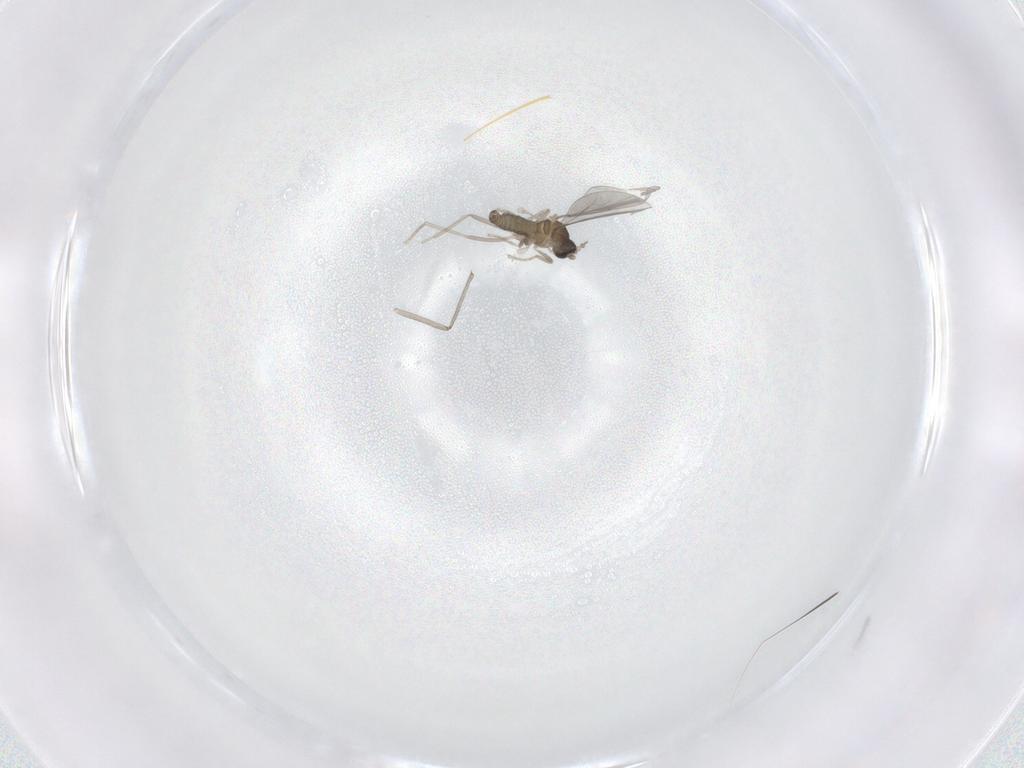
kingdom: Animalia
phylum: Arthropoda
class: Insecta
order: Diptera
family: Chironomidae
